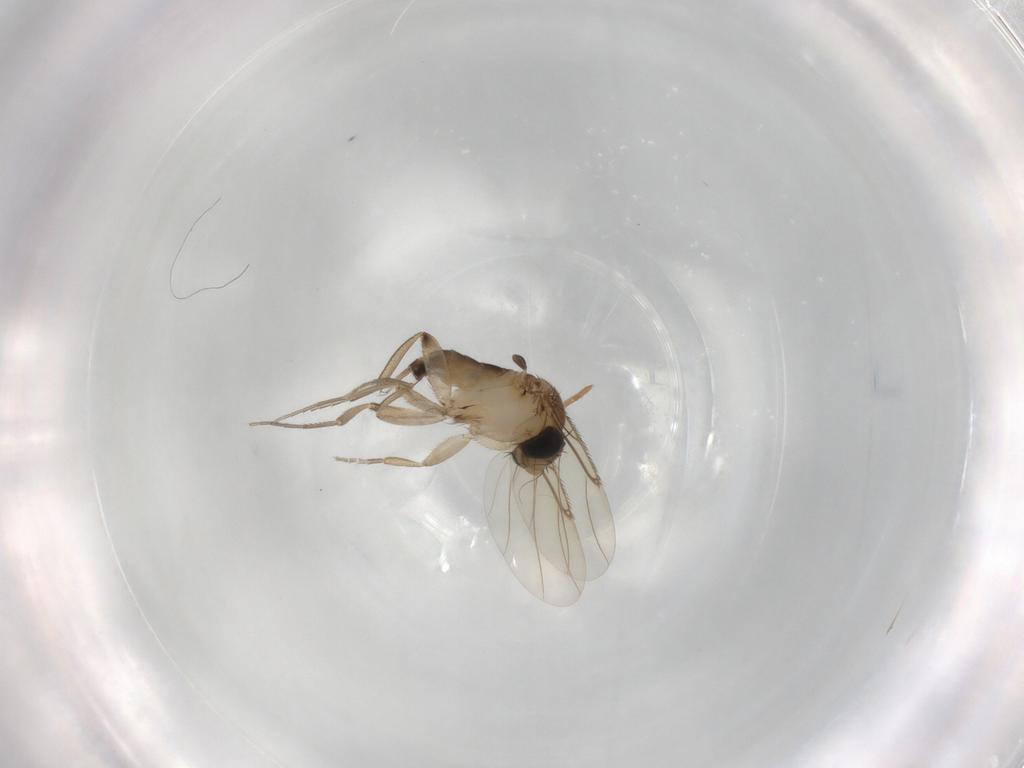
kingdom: Animalia
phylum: Arthropoda
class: Insecta
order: Diptera
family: Phoridae
